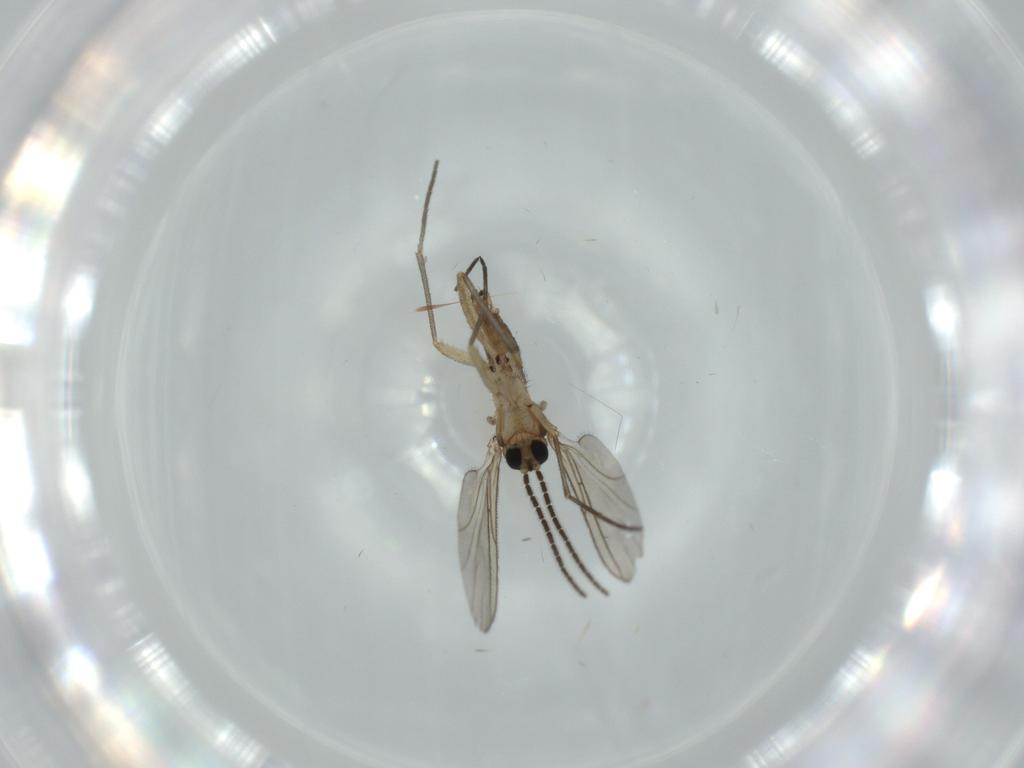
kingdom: Animalia
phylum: Arthropoda
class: Insecta
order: Diptera
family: Sciaridae
